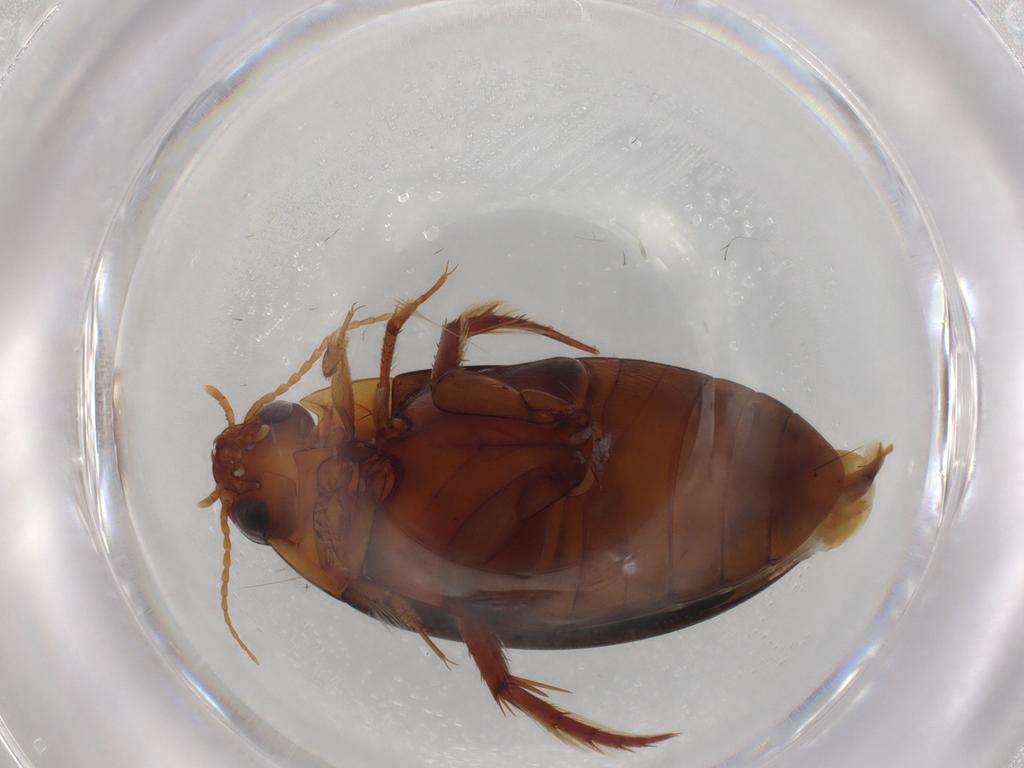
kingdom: Animalia
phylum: Arthropoda
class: Insecta
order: Coleoptera
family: Dytiscidae
